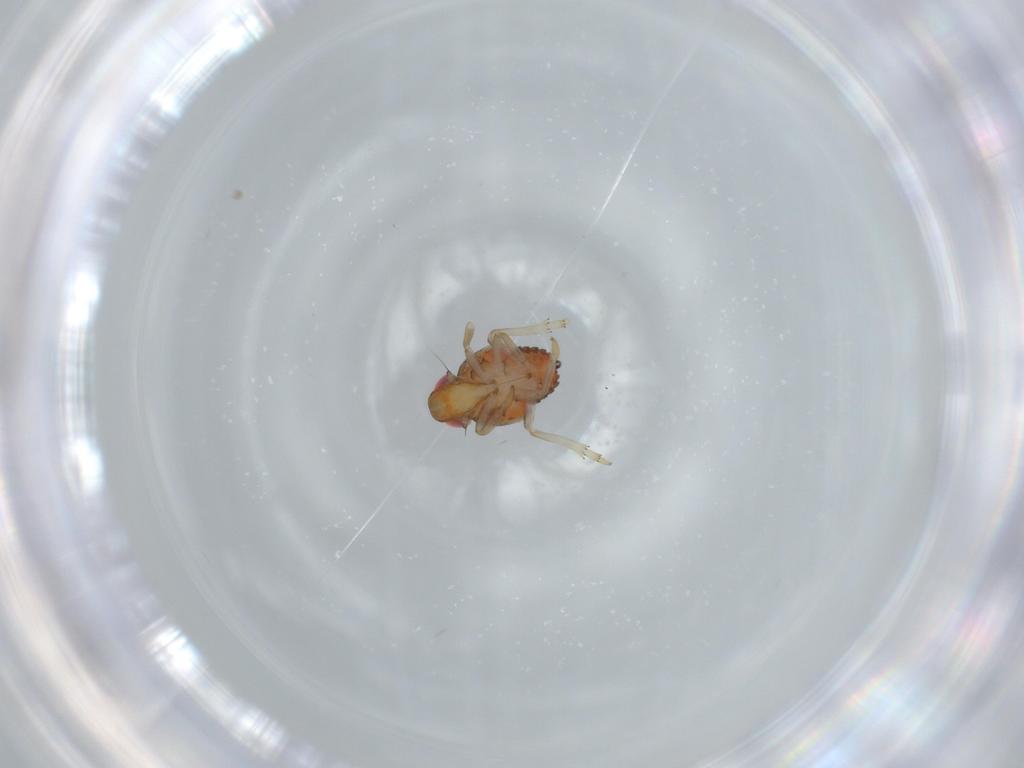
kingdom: Animalia
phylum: Arthropoda
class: Insecta
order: Hemiptera
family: Issidae
